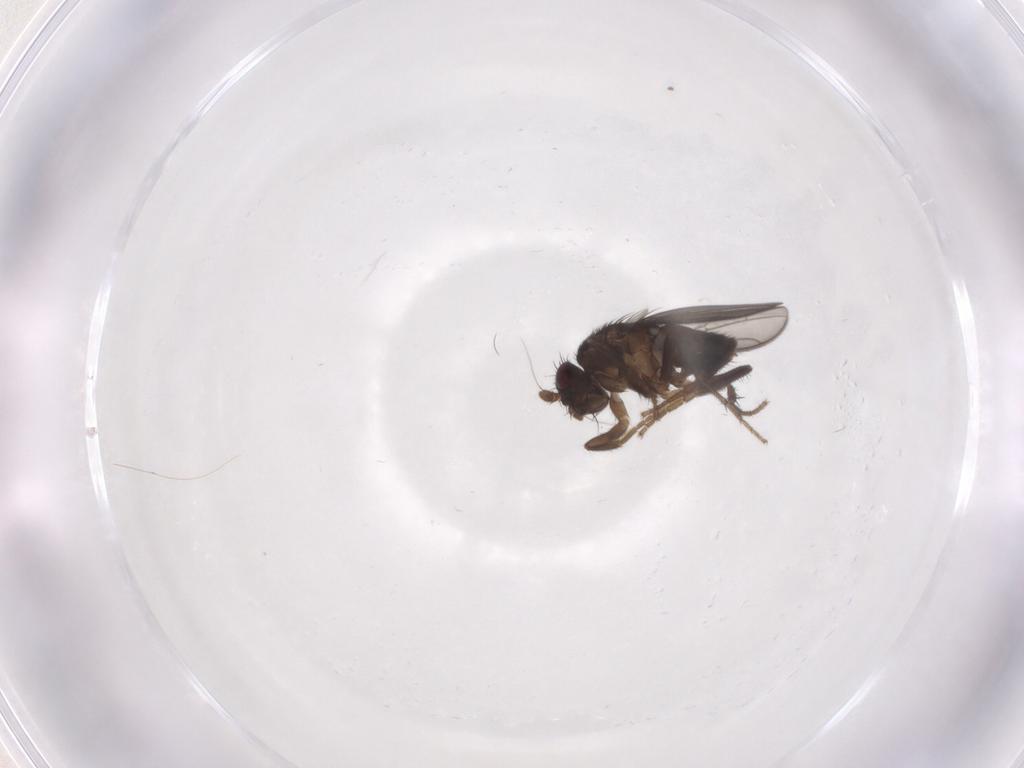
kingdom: Animalia
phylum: Arthropoda
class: Insecta
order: Diptera
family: Sphaeroceridae
